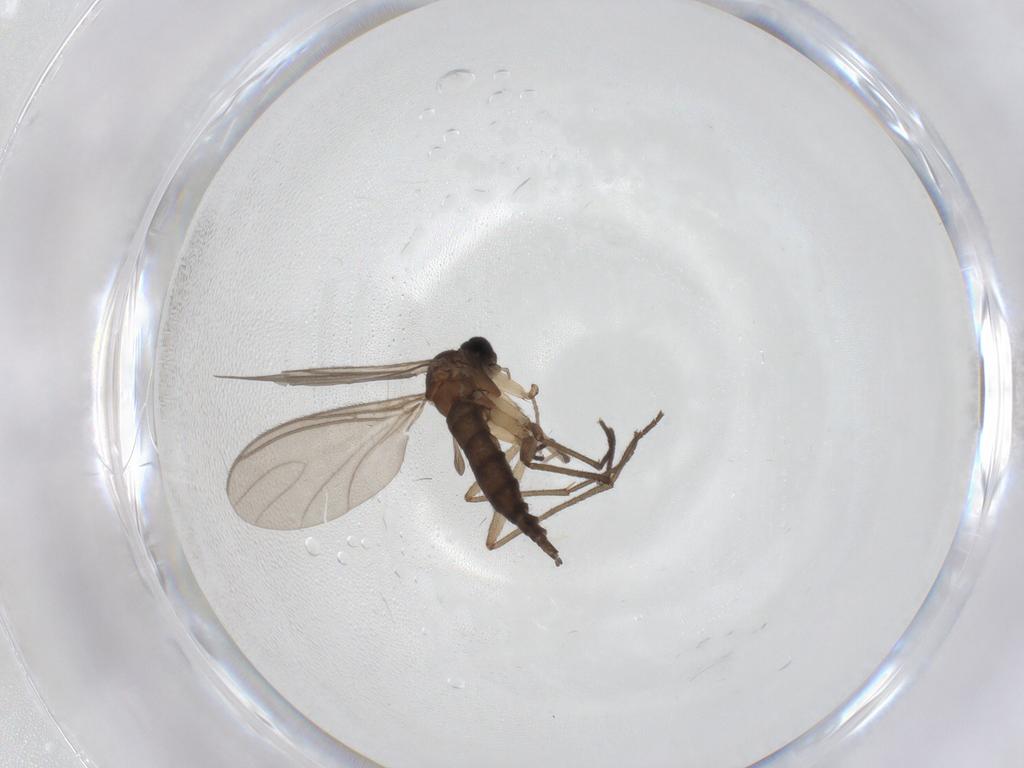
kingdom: Animalia
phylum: Arthropoda
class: Insecta
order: Diptera
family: Sciaridae
